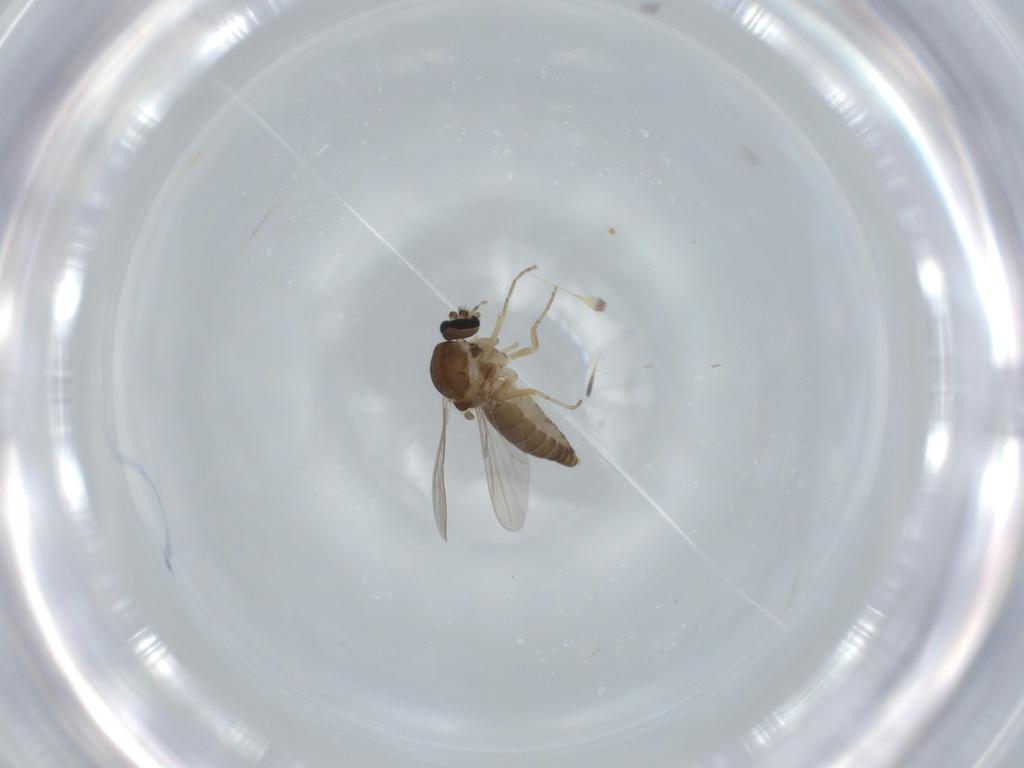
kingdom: Animalia
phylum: Arthropoda
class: Insecta
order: Diptera
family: Ceratopogonidae
